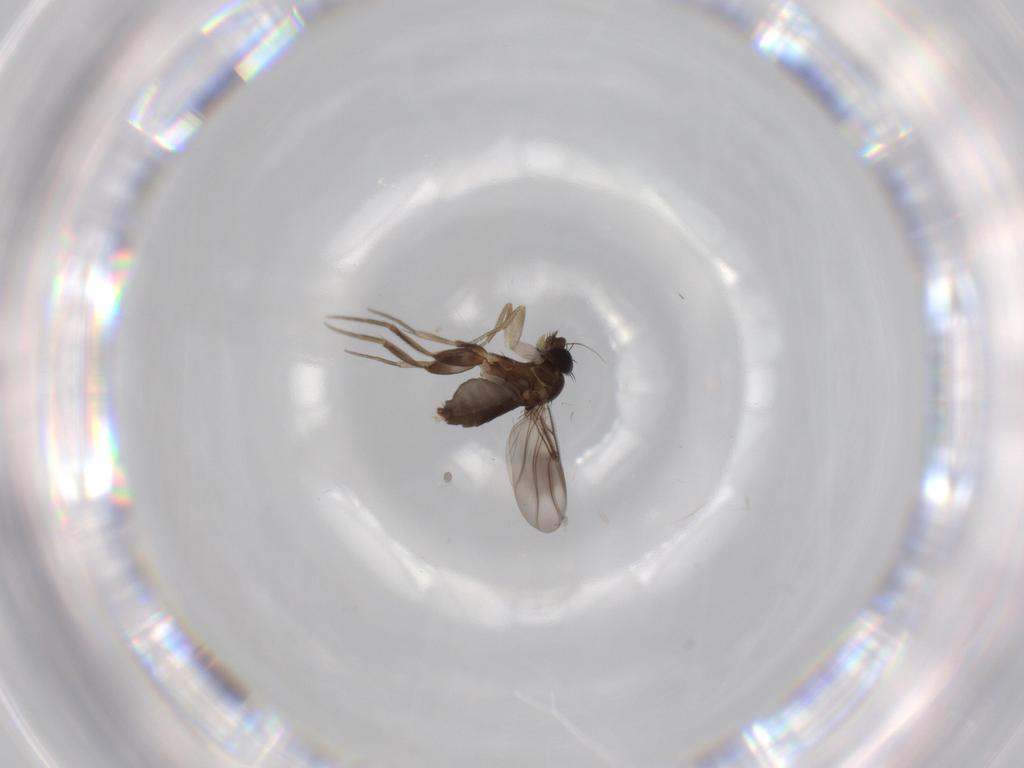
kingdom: Animalia
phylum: Arthropoda
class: Insecta
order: Diptera
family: Phoridae
